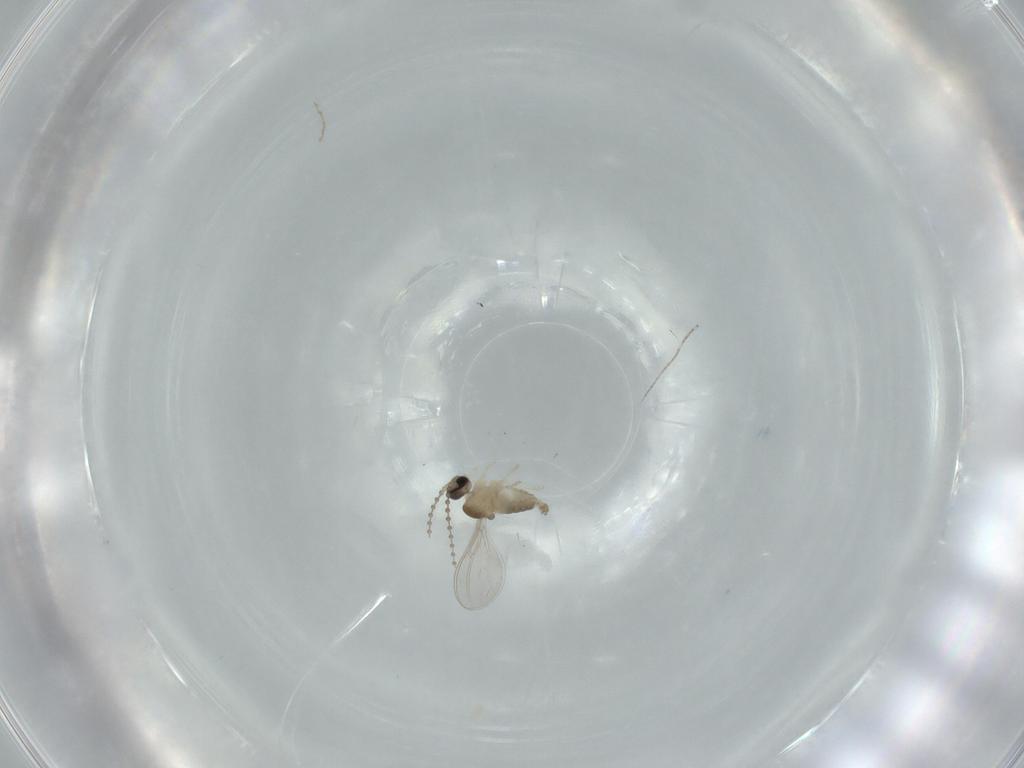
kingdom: Animalia
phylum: Arthropoda
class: Insecta
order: Diptera
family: Cecidomyiidae
